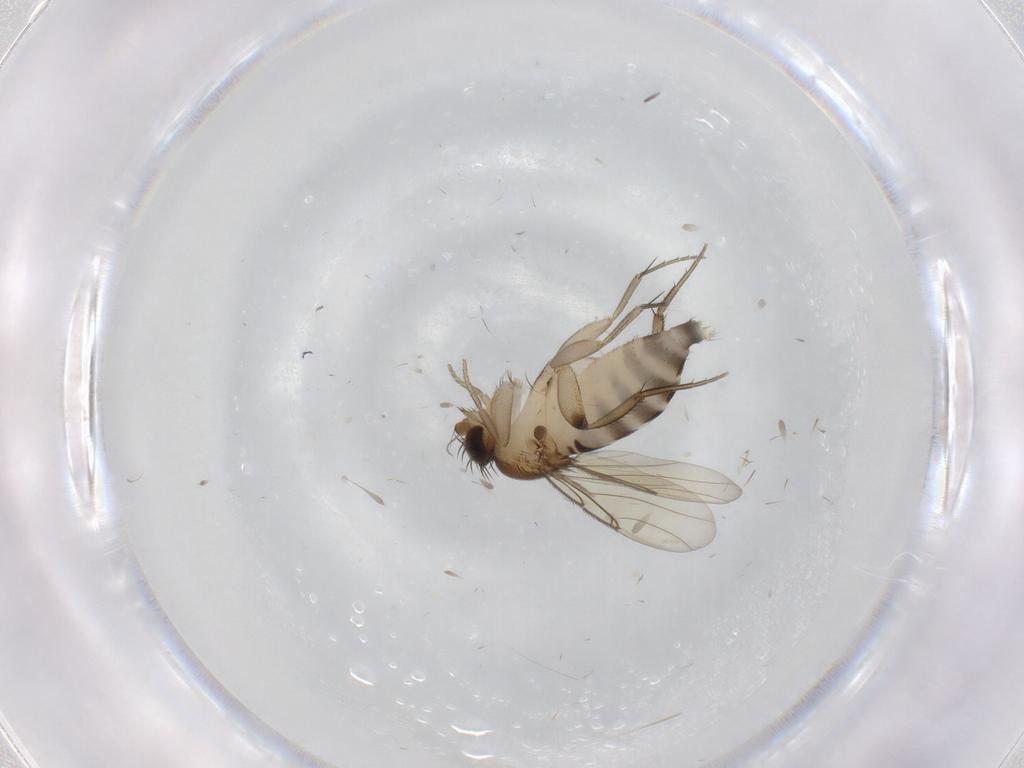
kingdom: Animalia
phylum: Arthropoda
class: Insecta
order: Diptera
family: Phoridae
